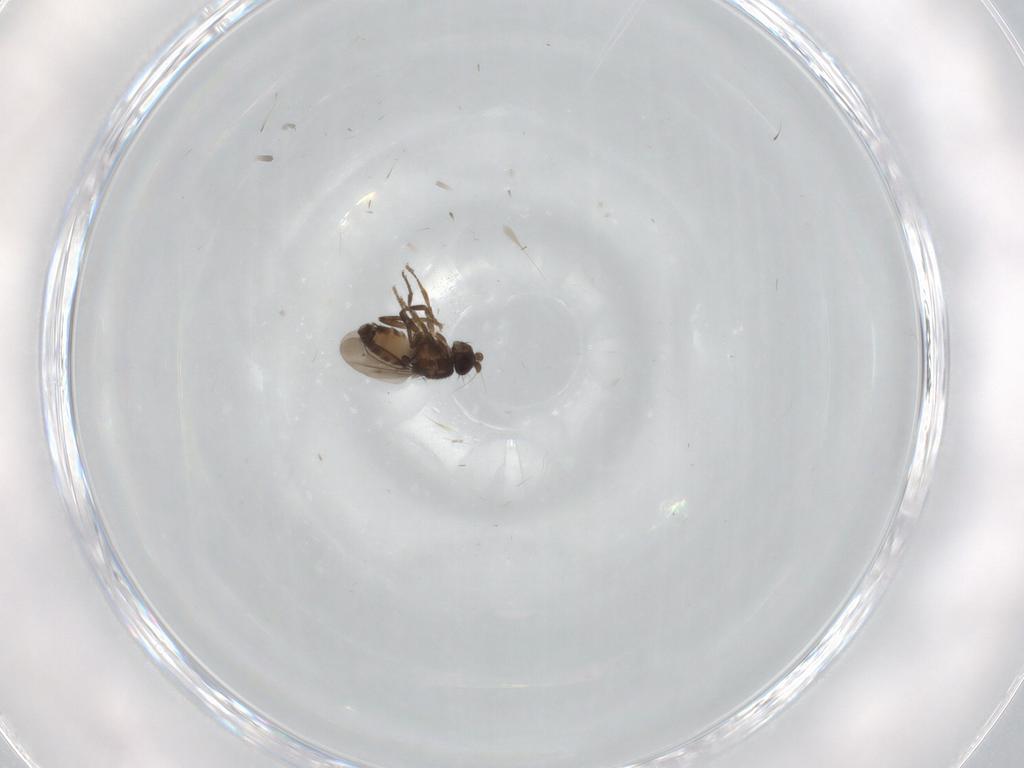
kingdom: Animalia
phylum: Arthropoda
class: Insecta
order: Diptera
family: Sphaeroceridae
